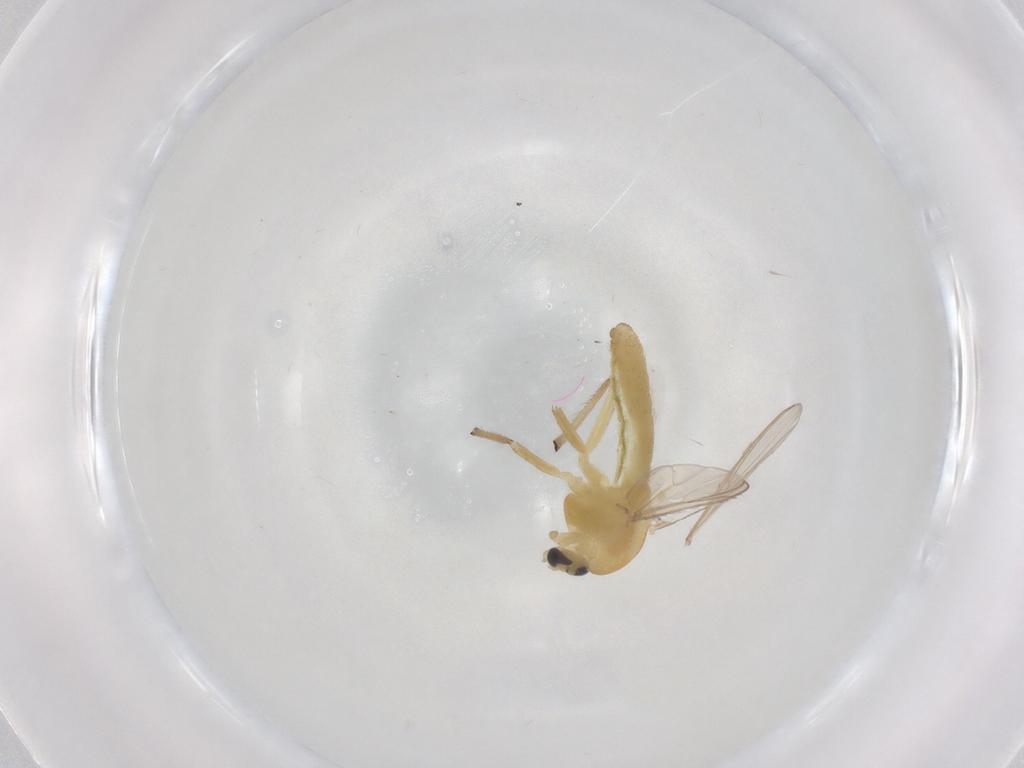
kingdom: Animalia
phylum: Arthropoda
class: Insecta
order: Diptera
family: Chironomidae
